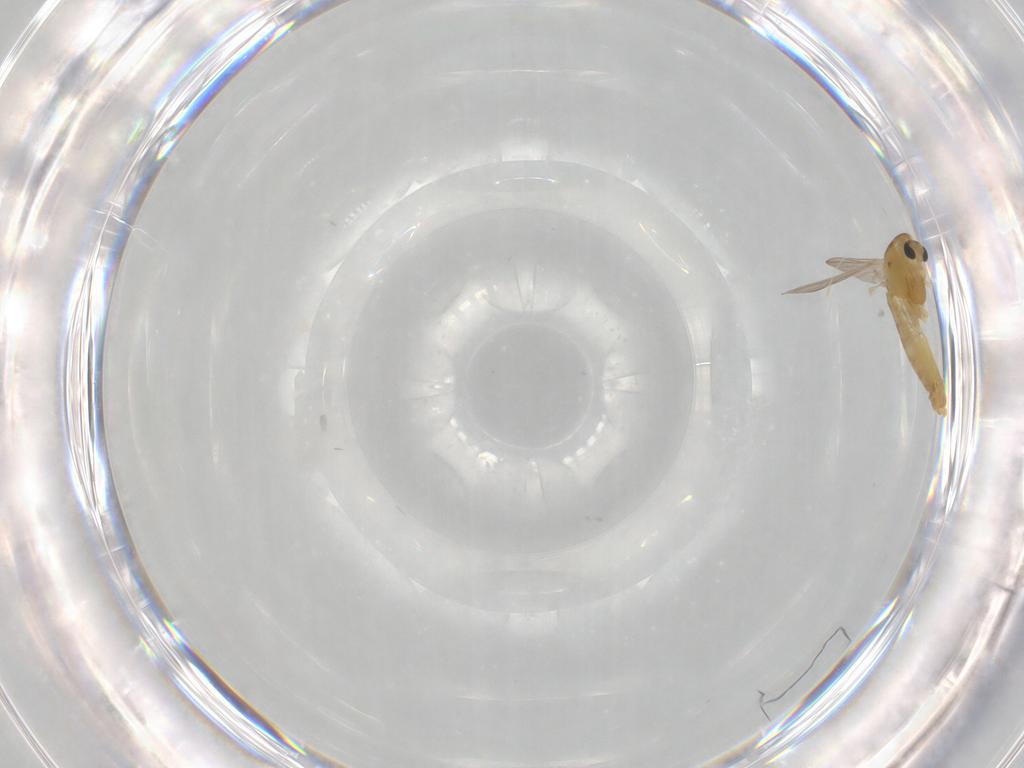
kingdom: Animalia
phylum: Arthropoda
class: Insecta
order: Diptera
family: Chironomidae
